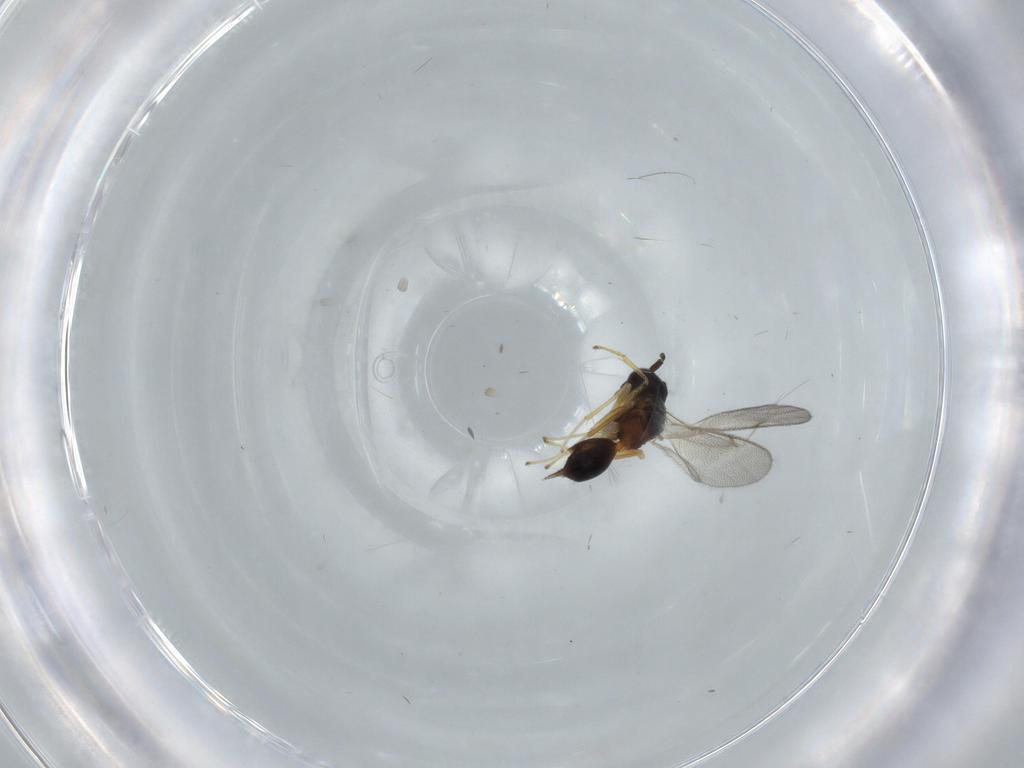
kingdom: Animalia
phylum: Arthropoda
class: Insecta
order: Hymenoptera
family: Diparidae
